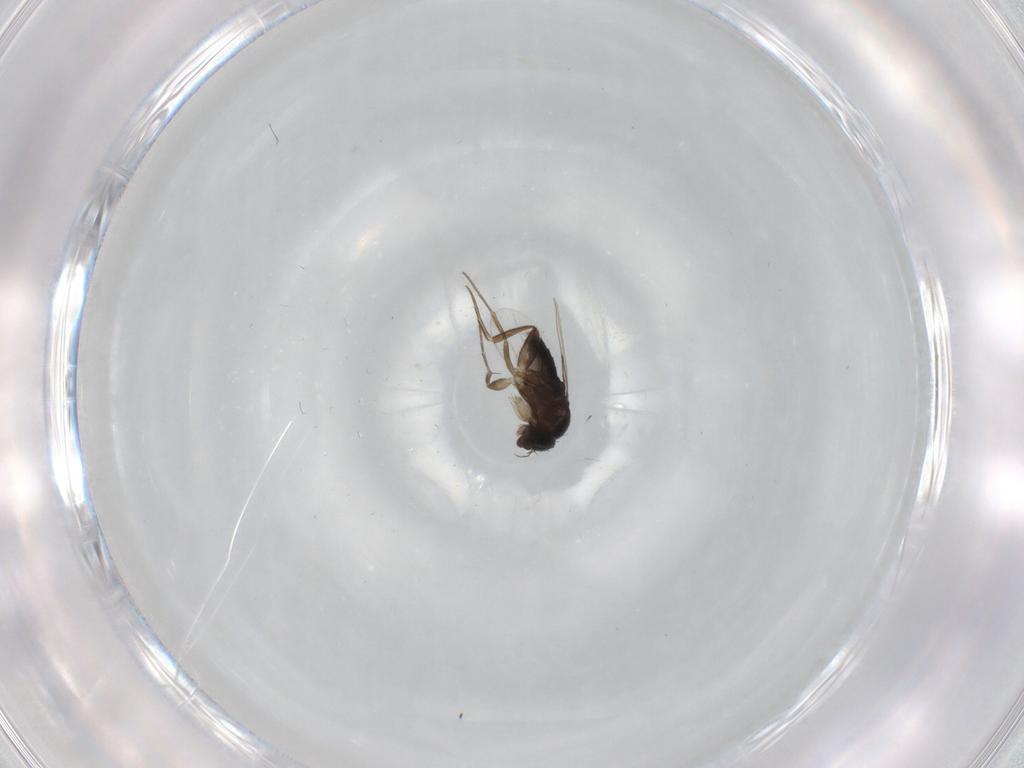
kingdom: Animalia
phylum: Arthropoda
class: Insecta
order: Diptera
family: Phoridae
